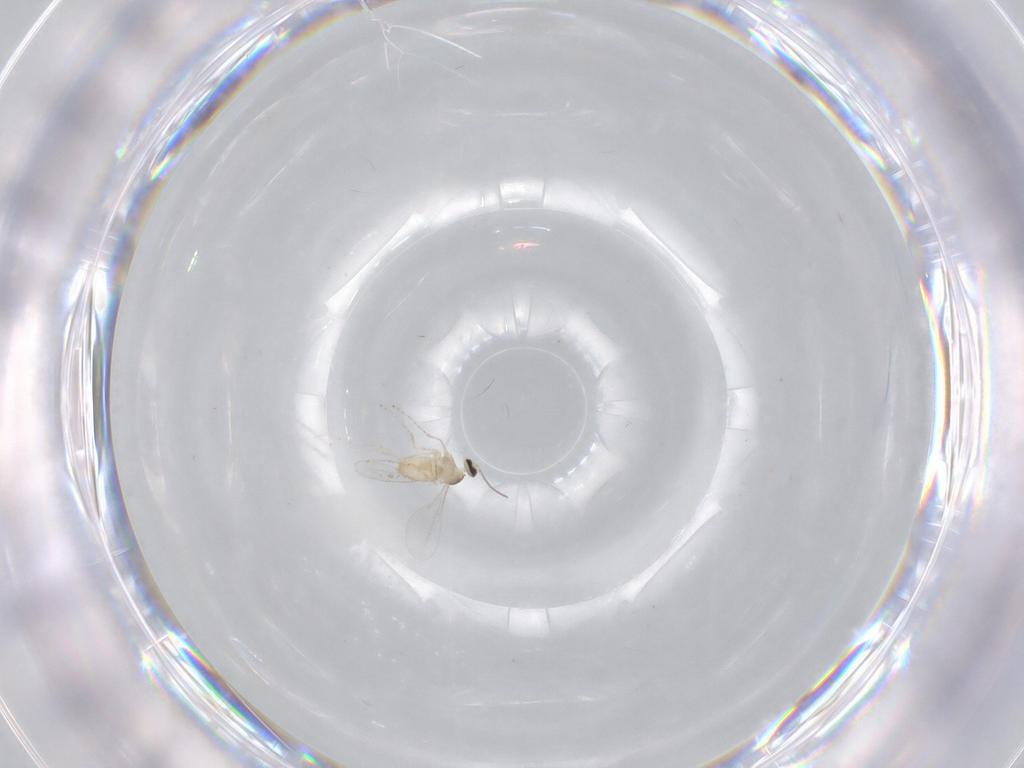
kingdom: Animalia
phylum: Arthropoda
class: Insecta
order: Diptera
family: Cecidomyiidae
